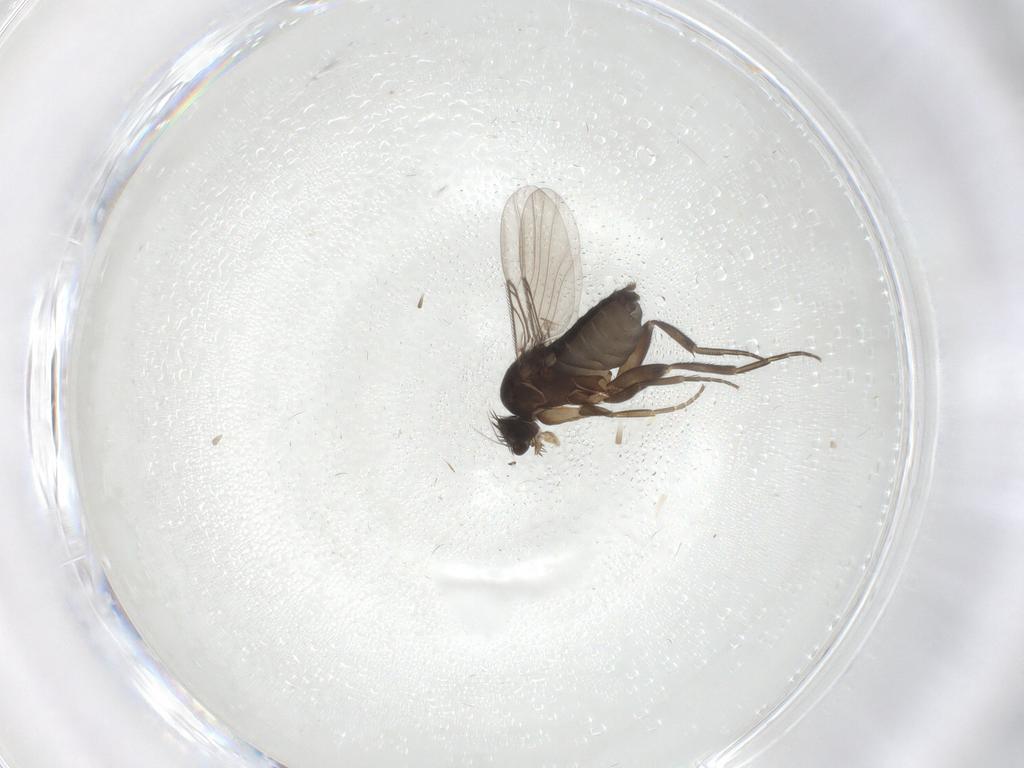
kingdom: Animalia
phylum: Arthropoda
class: Insecta
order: Diptera
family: Phoridae
